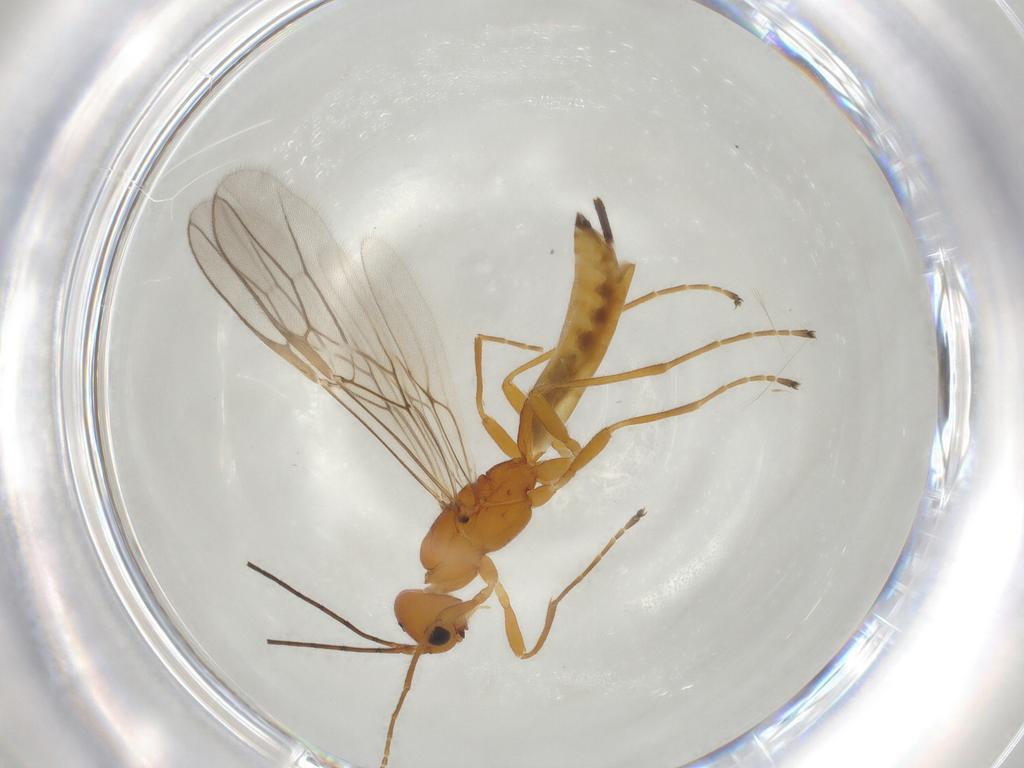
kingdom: Animalia
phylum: Arthropoda
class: Insecta
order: Hymenoptera
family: Braconidae
